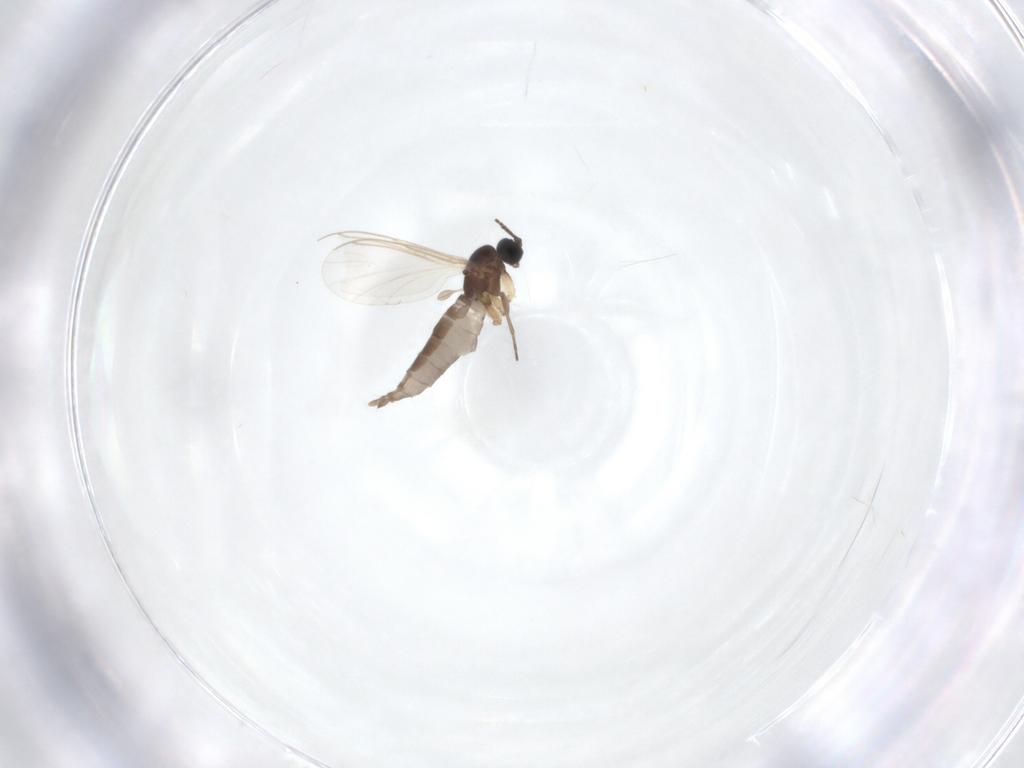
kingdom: Animalia
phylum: Arthropoda
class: Insecta
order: Diptera
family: Sciaridae
